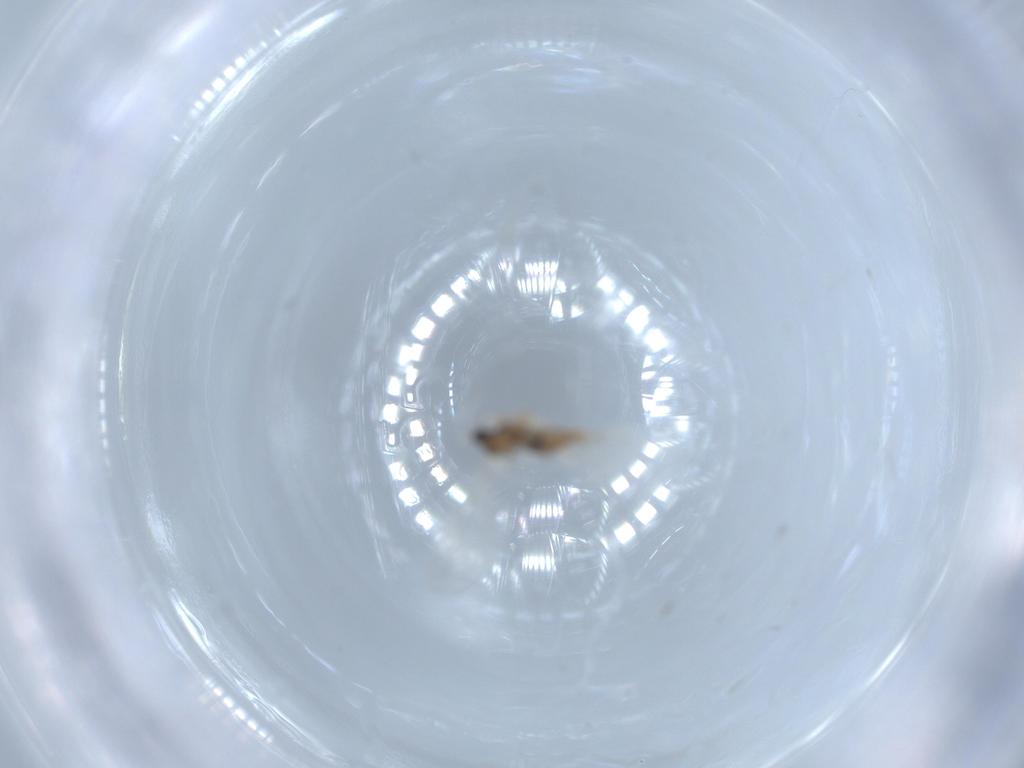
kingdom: Animalia
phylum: Arthropoda
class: Insecta
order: Diptera
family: Cecidomyiidae
